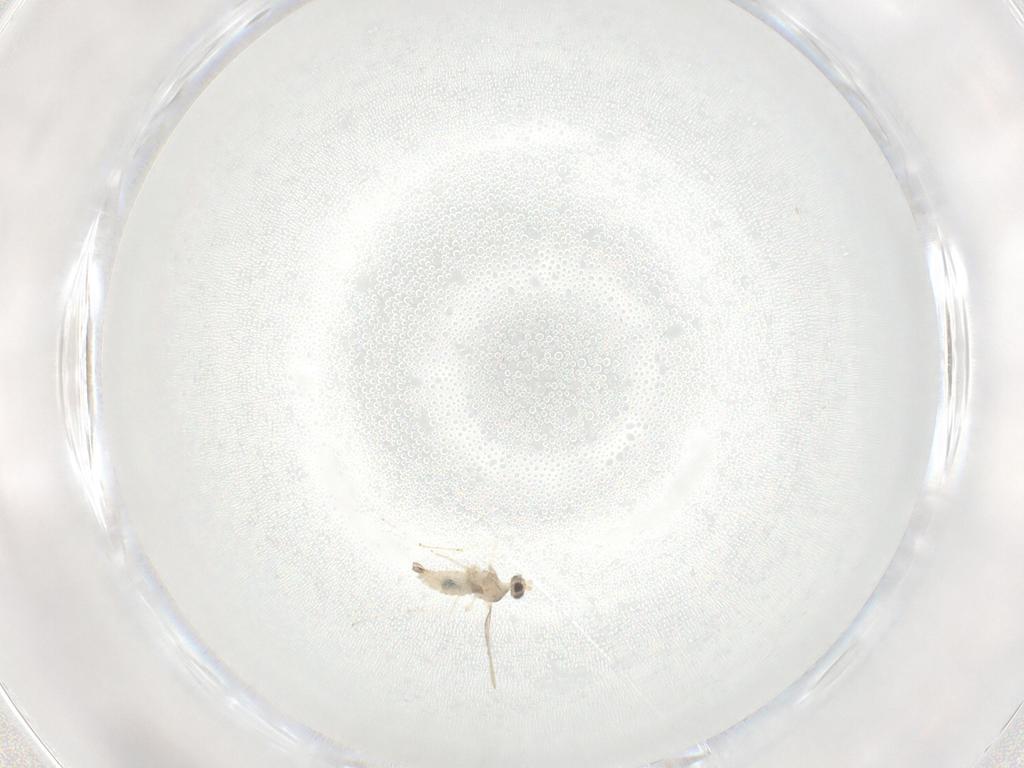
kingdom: Animalia
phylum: Arthropoda
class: Insecta
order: Diptera
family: Cecidomyiidae
